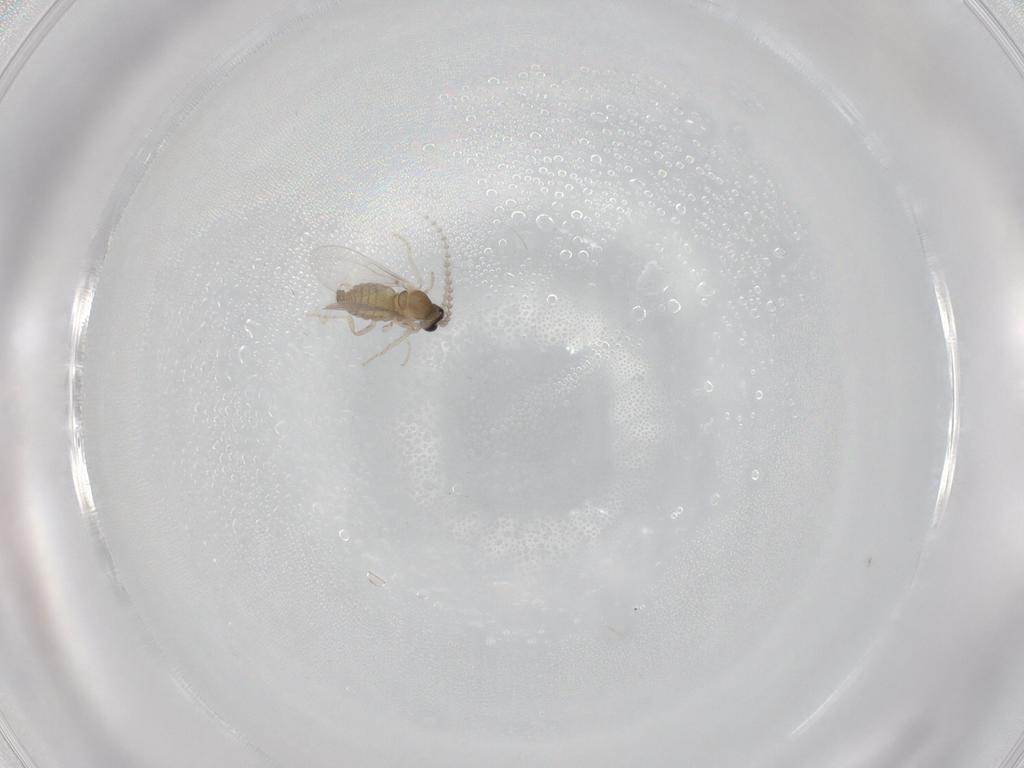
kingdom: Animalia
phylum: Arthropoda
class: Insecta
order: Diptera
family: Cecidomyiidae
